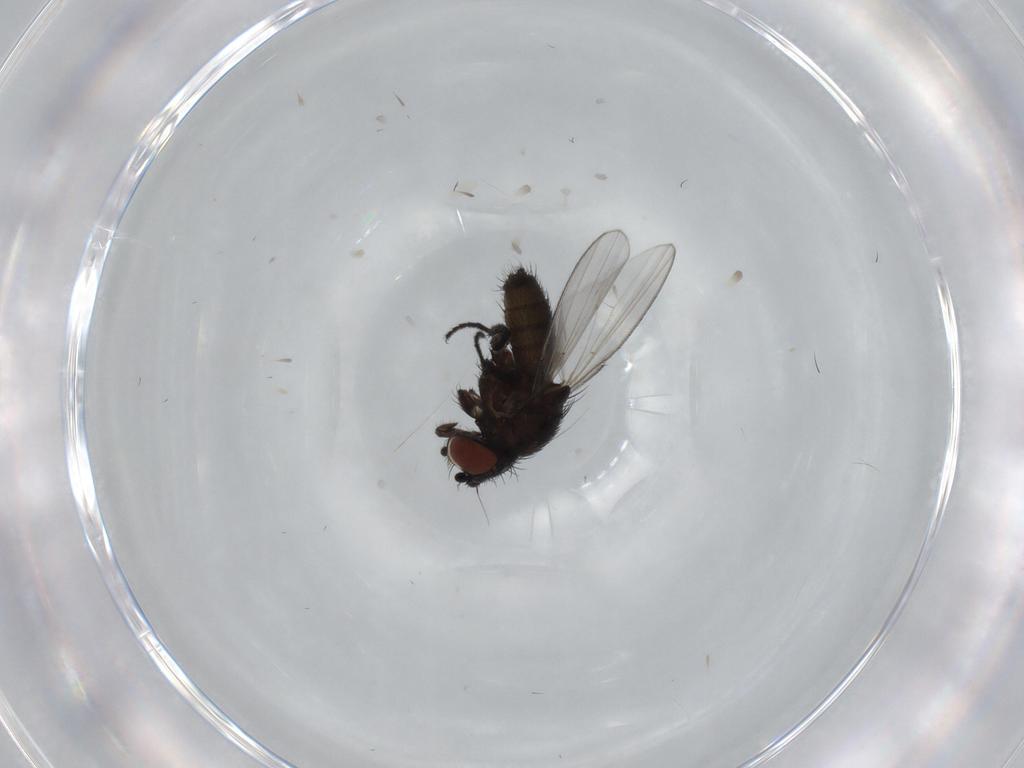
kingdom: Animalia
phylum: Arthropoda
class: Insecta
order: Diptera
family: Milichiidae
